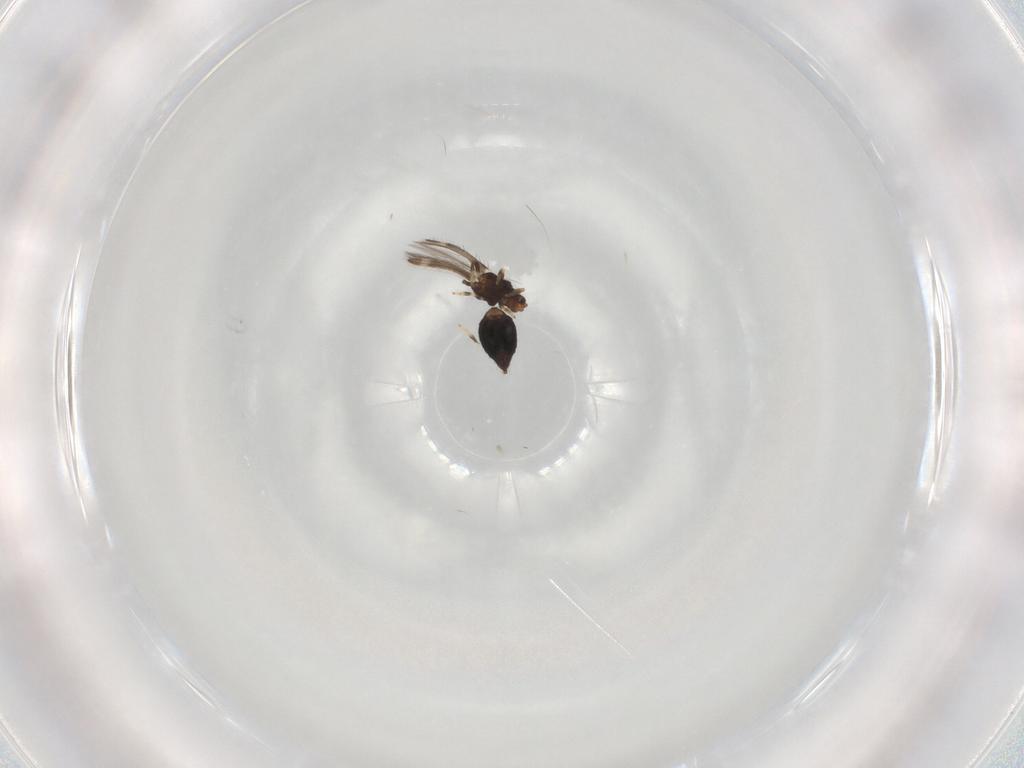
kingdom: Animalia
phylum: Arthropoda
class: Insecta
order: Thysanoptera
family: Thripidae
